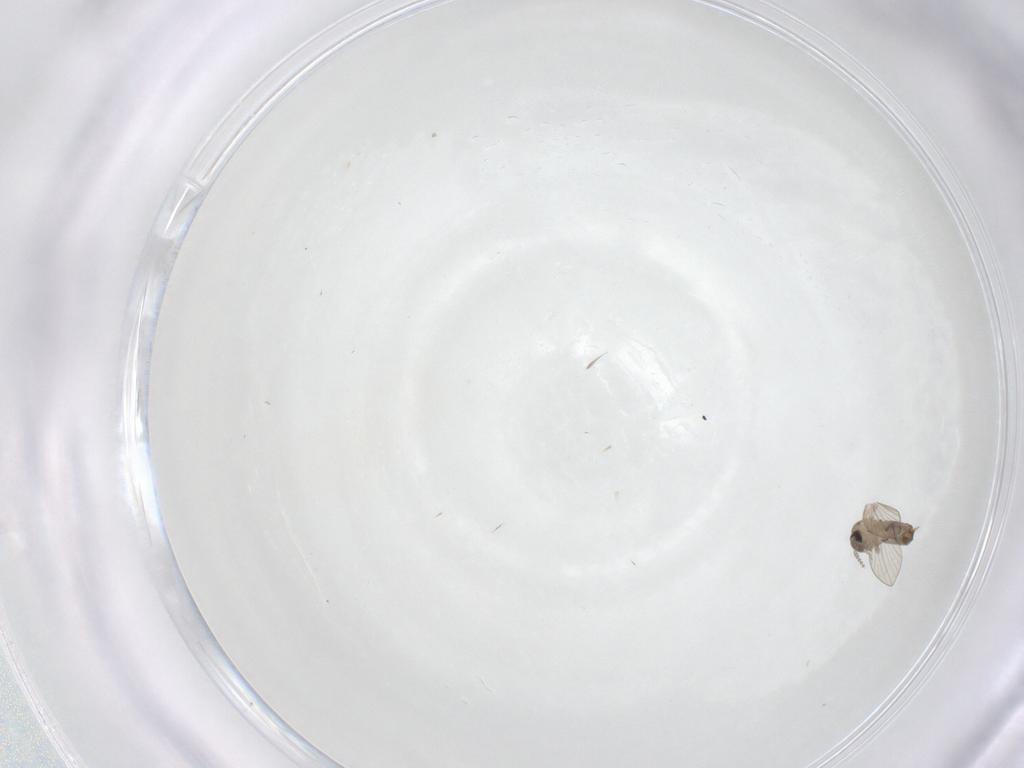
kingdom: Animalia
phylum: Arthropoda
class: Insecta
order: Diptera
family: Psychodidae
